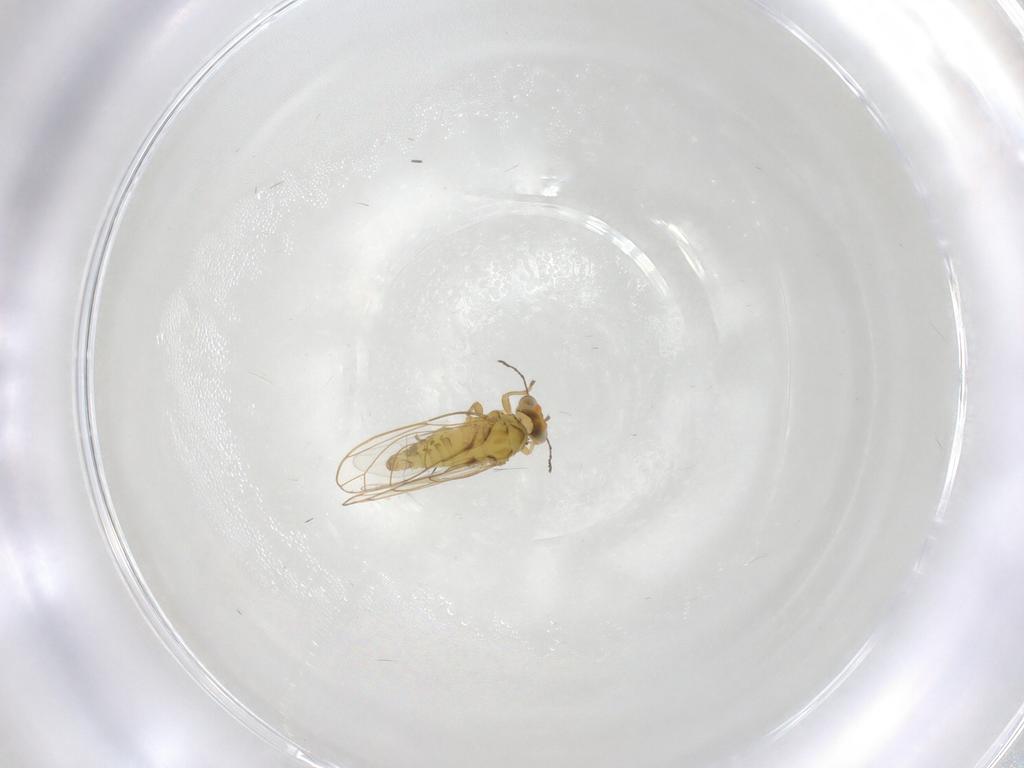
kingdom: Animalia
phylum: Arthropoda
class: Insecta
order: Hemiptera
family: Psylloidea_incertae_sedis
